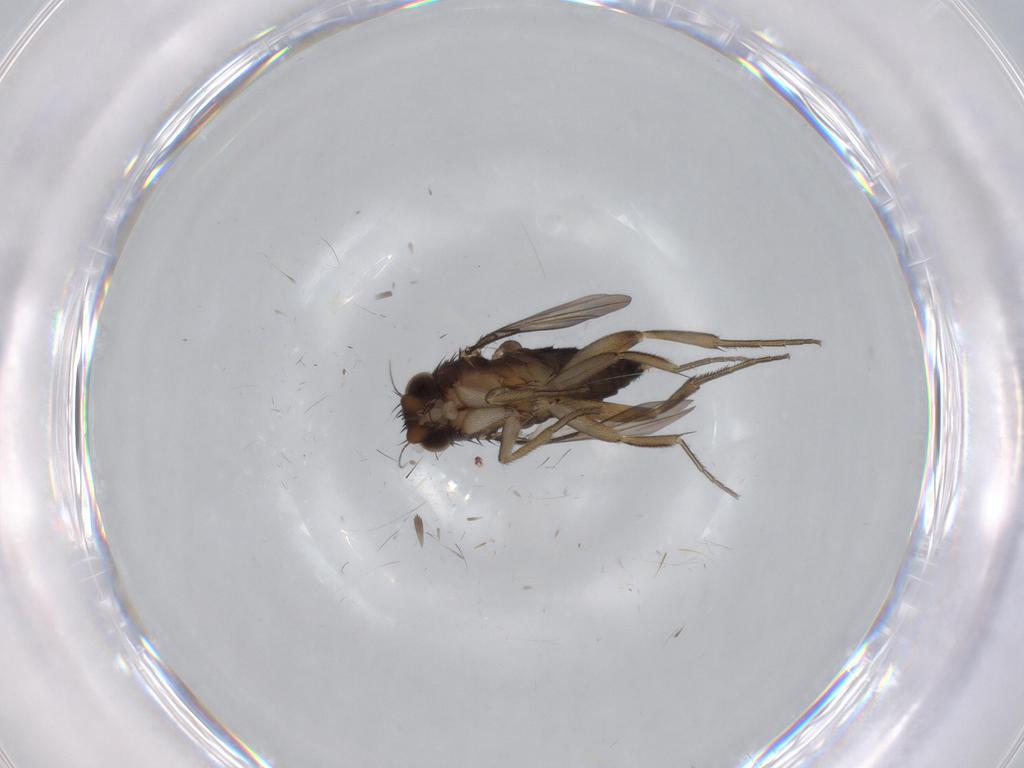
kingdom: Animalia
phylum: Arthropoda
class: Insecta
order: Diptera
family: Phoridae
